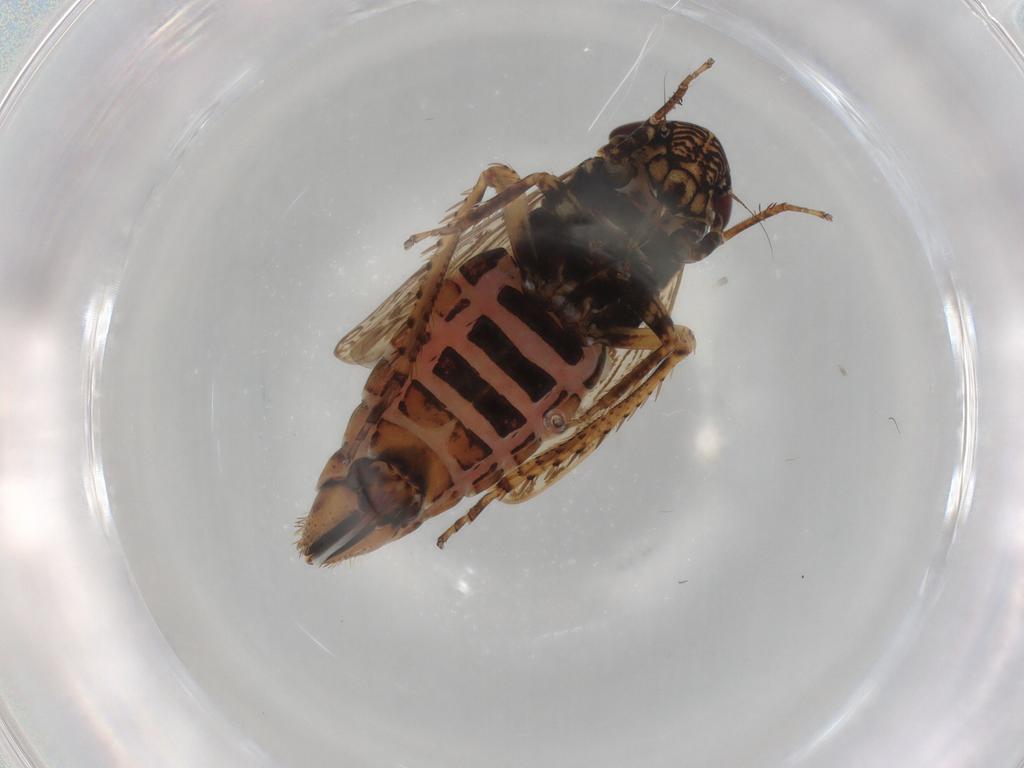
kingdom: Animalia
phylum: Arthropoda
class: Insecta
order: Hemiptera
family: Cicadellidae
